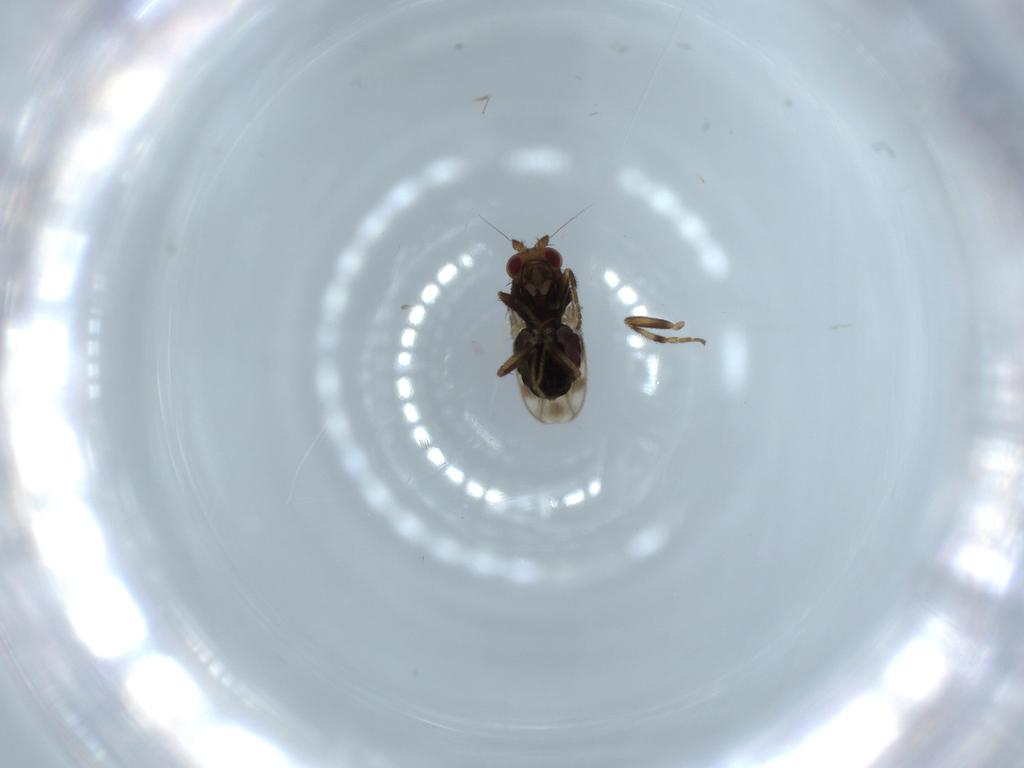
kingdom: Animalia
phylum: Arthropoda
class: Insecta
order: Diptera
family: Sphaeroceridae
